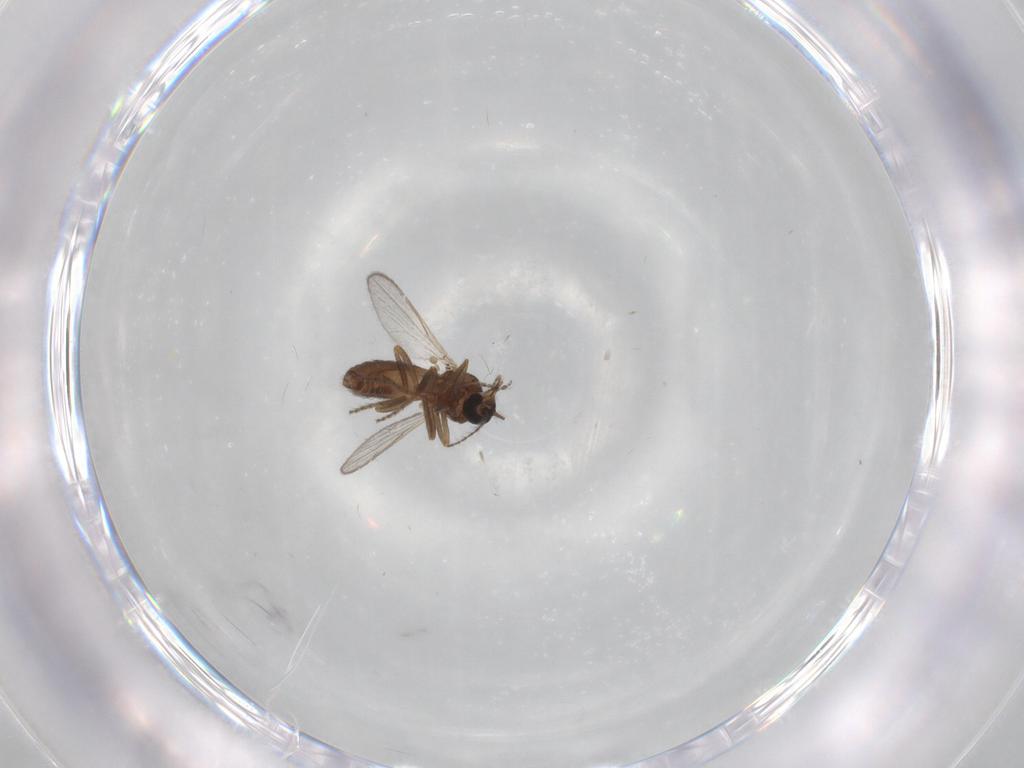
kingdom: Animalia
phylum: Arthropoda
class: Insecta
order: Diptera
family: Ceratopogonidae
